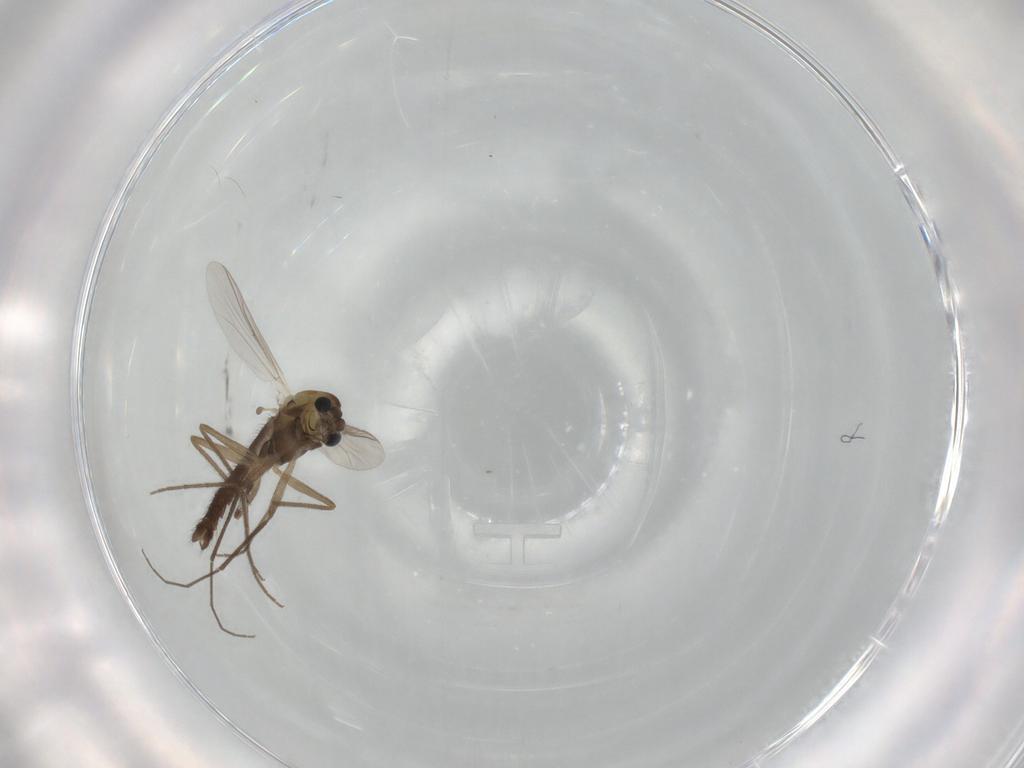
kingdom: Animalia
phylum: Arthropoda
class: Insecta
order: Diptera
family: Chironomidae
